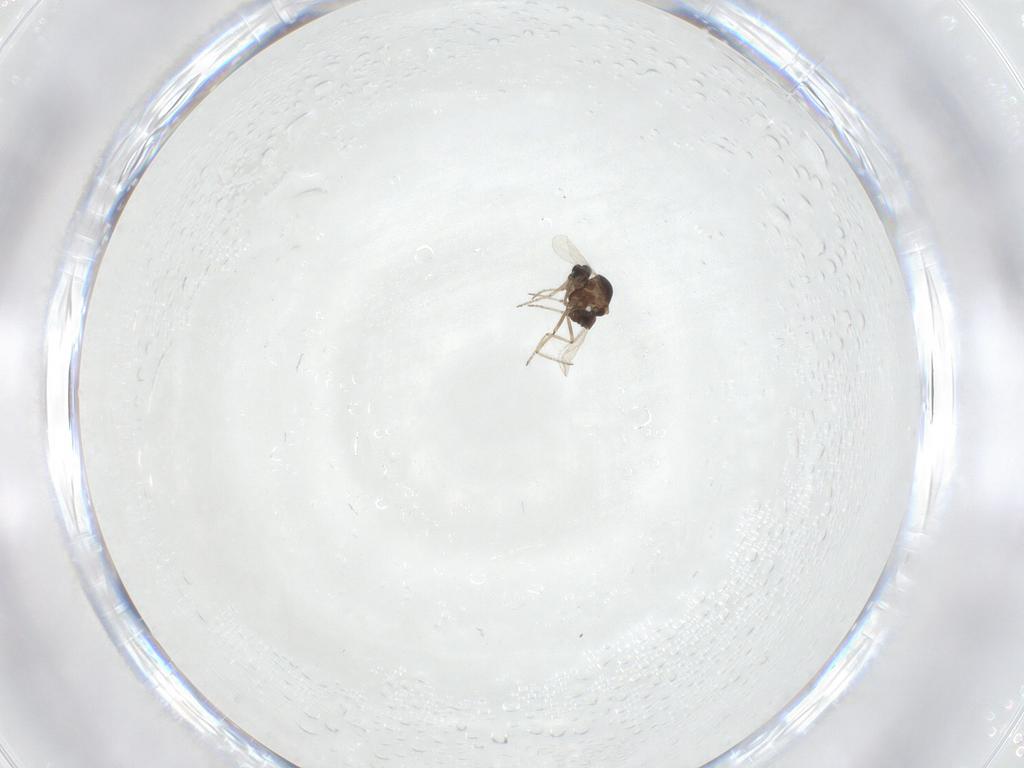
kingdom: Animalia
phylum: Arthropoda
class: Insecta
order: Diptera
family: Ceratopogonidae
